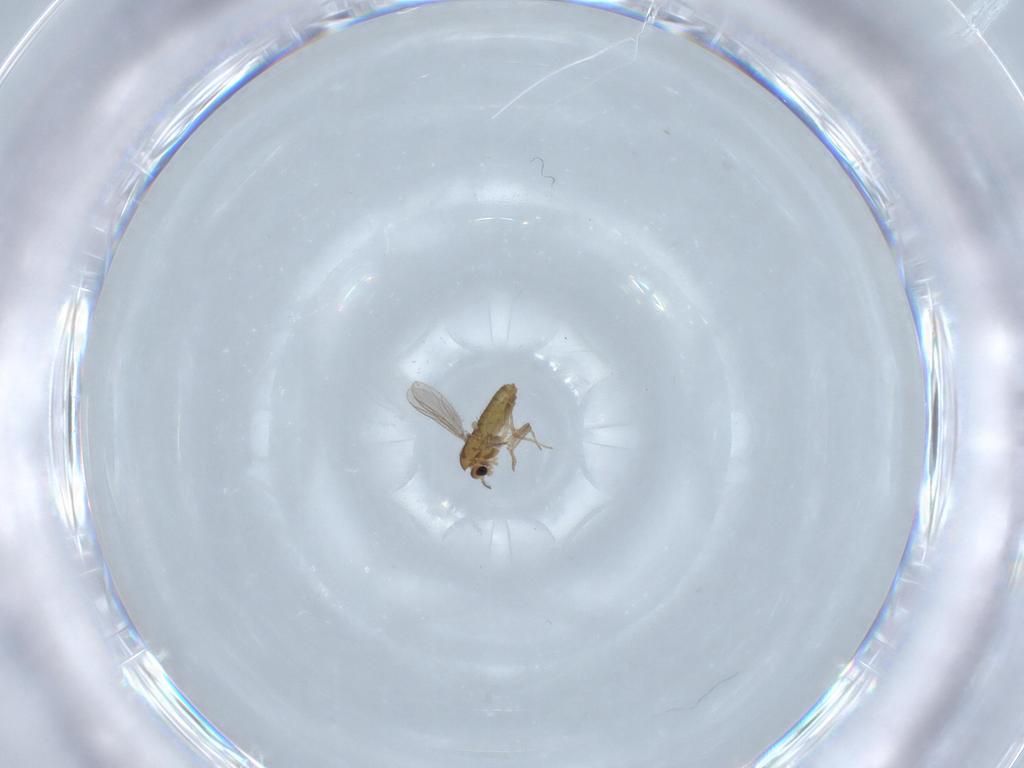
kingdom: Animalia
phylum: Arthropoda
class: Insecta
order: Diptera
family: Chironomidae
